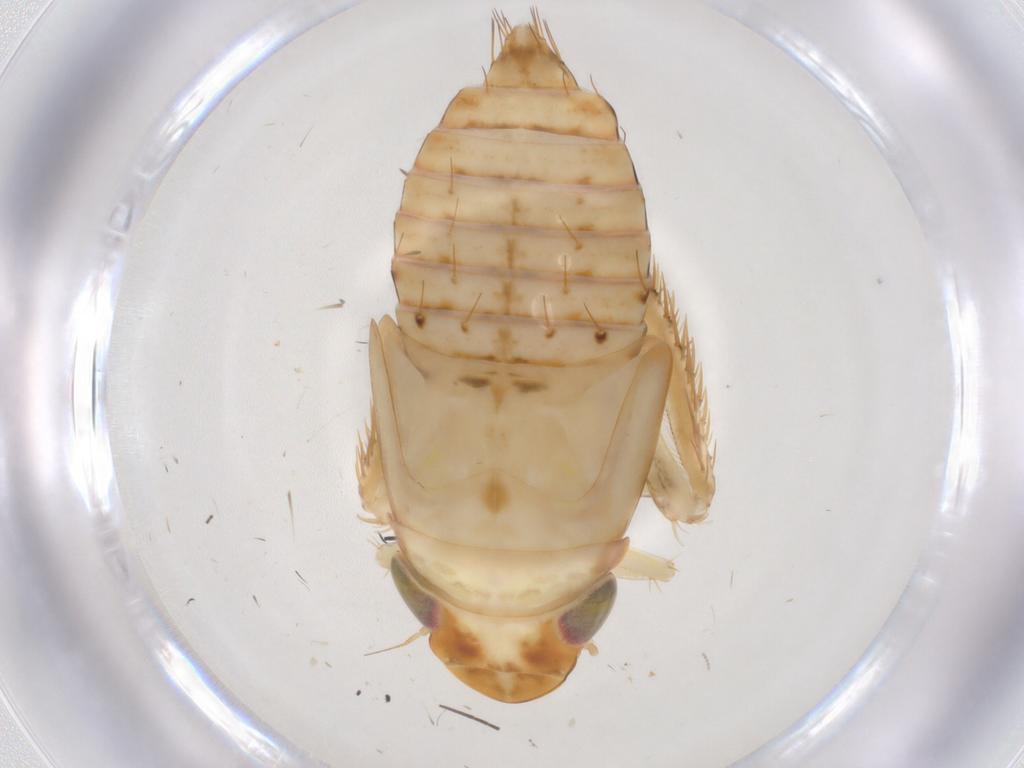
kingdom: Animalia
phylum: Arthropoda
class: Insecta
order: Hemiptera
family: Cicadellidae
